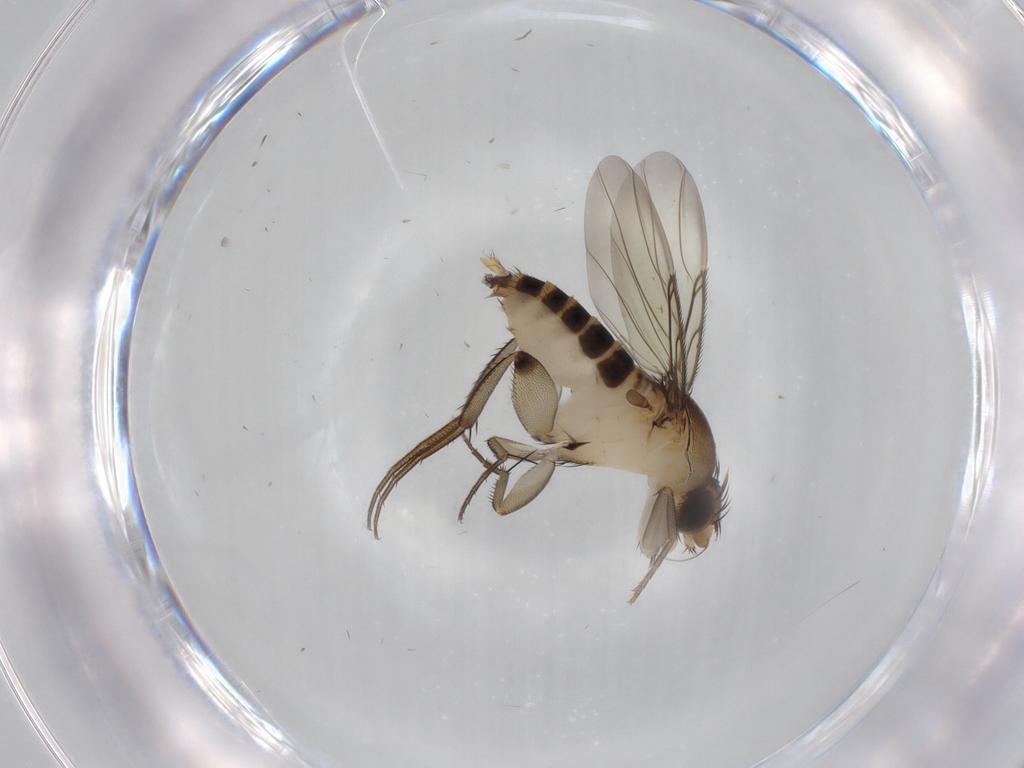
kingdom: Animalia
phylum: Arthropoda
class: Insecta
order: Diptera
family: Phoridae
